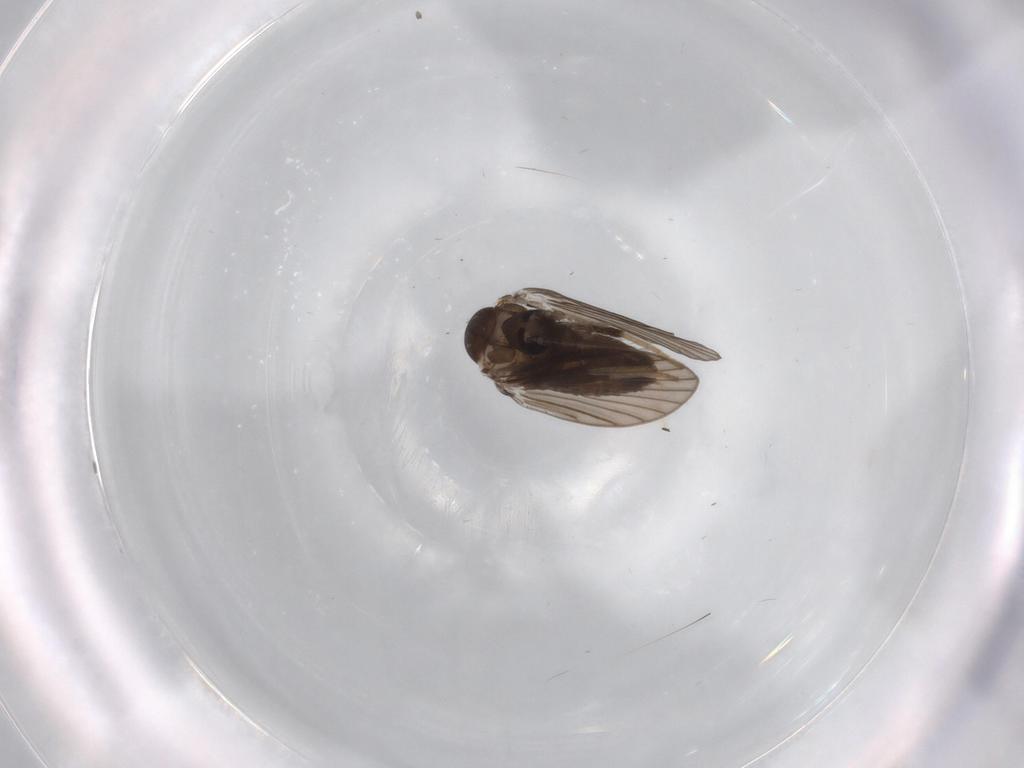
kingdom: Animalia
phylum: Arthropoda
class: Insecta
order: Diptera
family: Psychodidae
